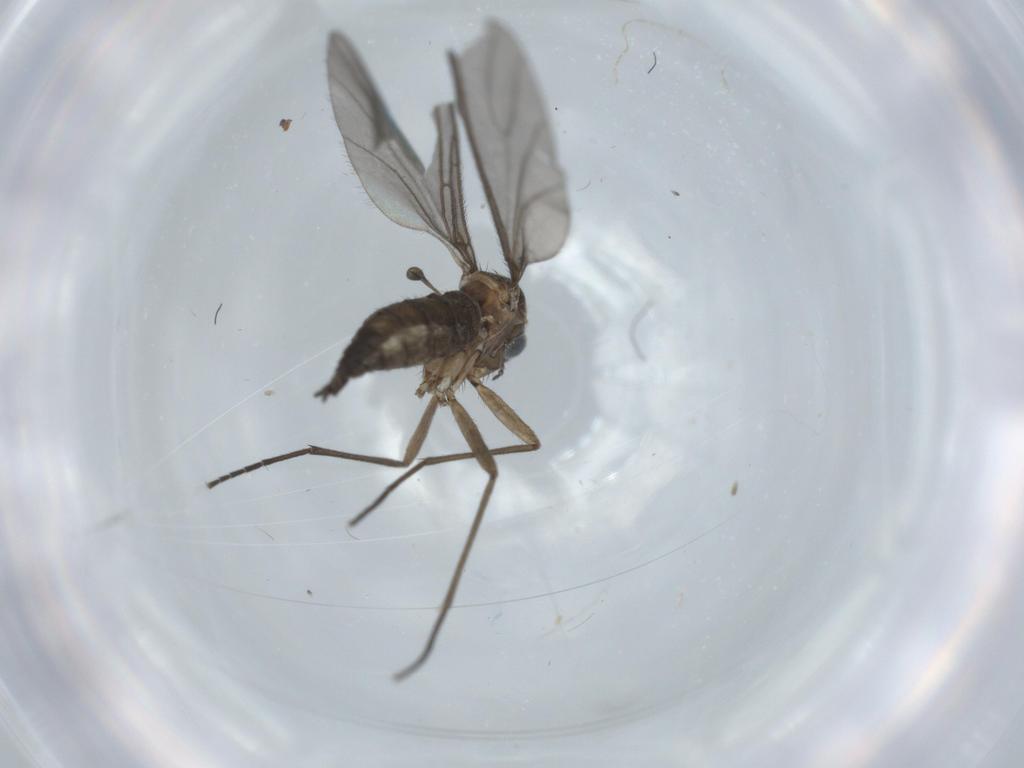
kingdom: Animalia
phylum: Arthropoda
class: Insecta
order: Diptera
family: Sciaridae
